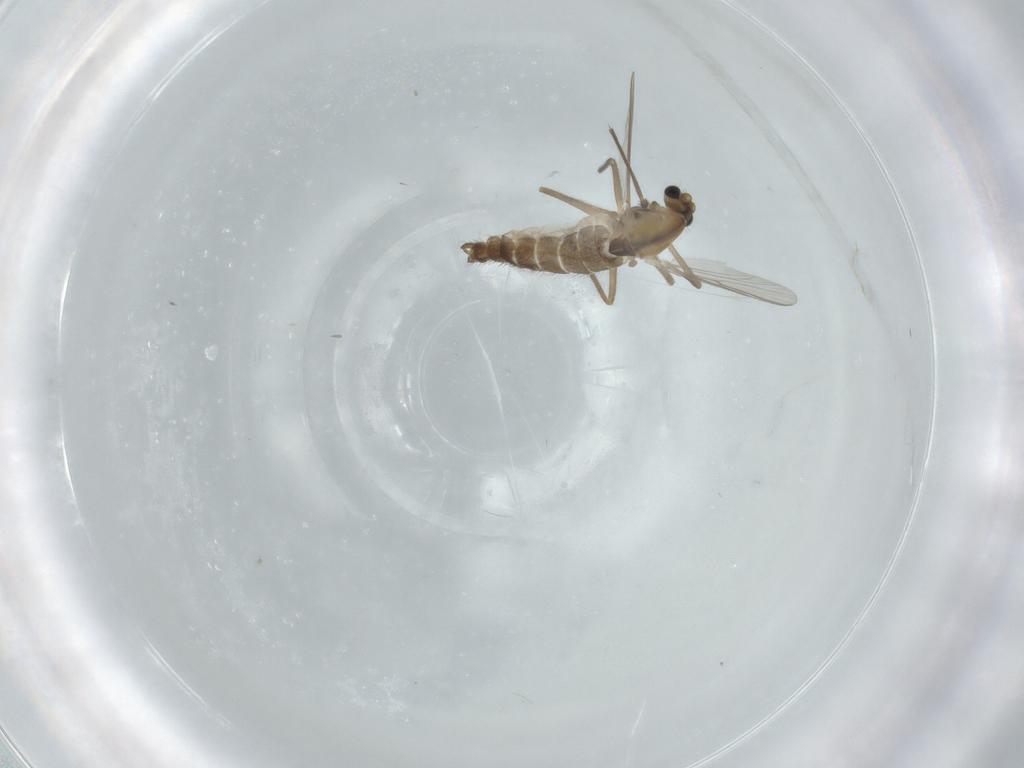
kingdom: Animalia
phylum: Arthropoda
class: Insecta
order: Diptera
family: Chironomidae
